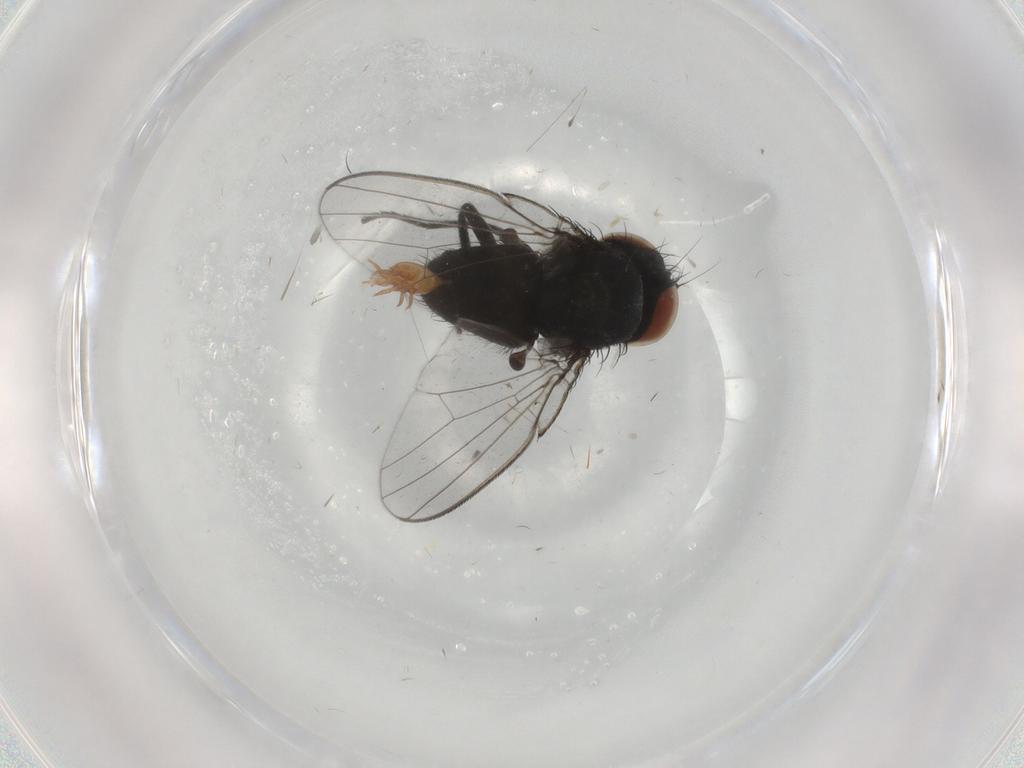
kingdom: Animalia
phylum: Arthropoda
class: Insecta
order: Diptera
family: Milichiidae
